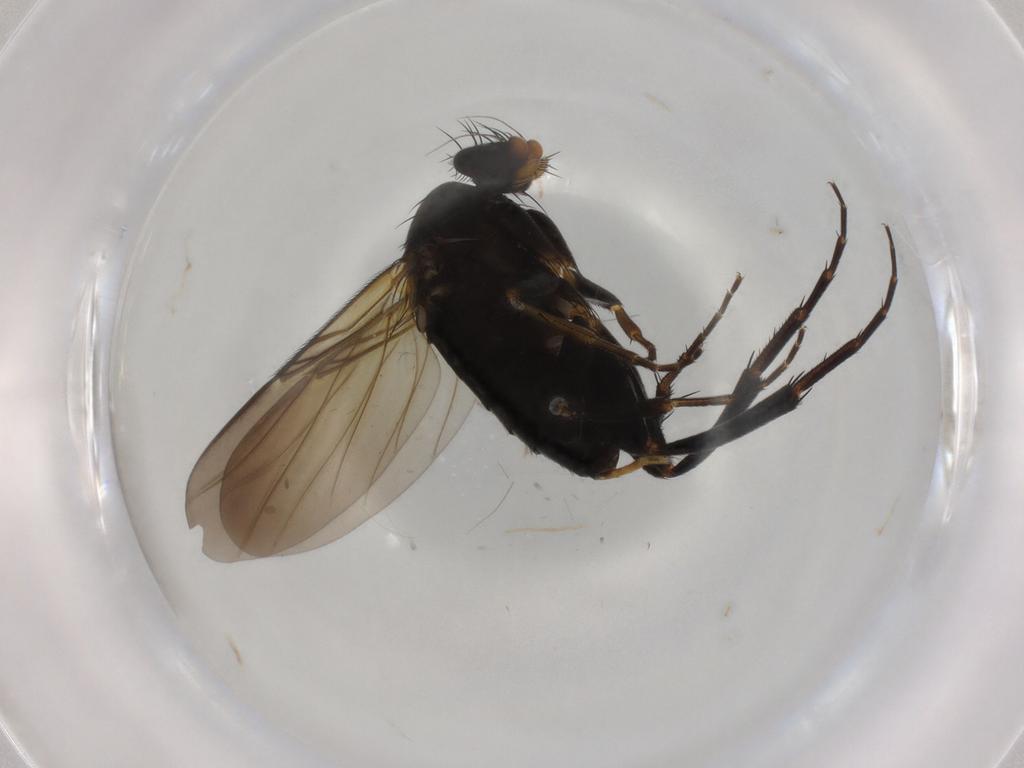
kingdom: Animalia
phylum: Arthropoda
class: Insecta
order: Diptera
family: Phoridae
